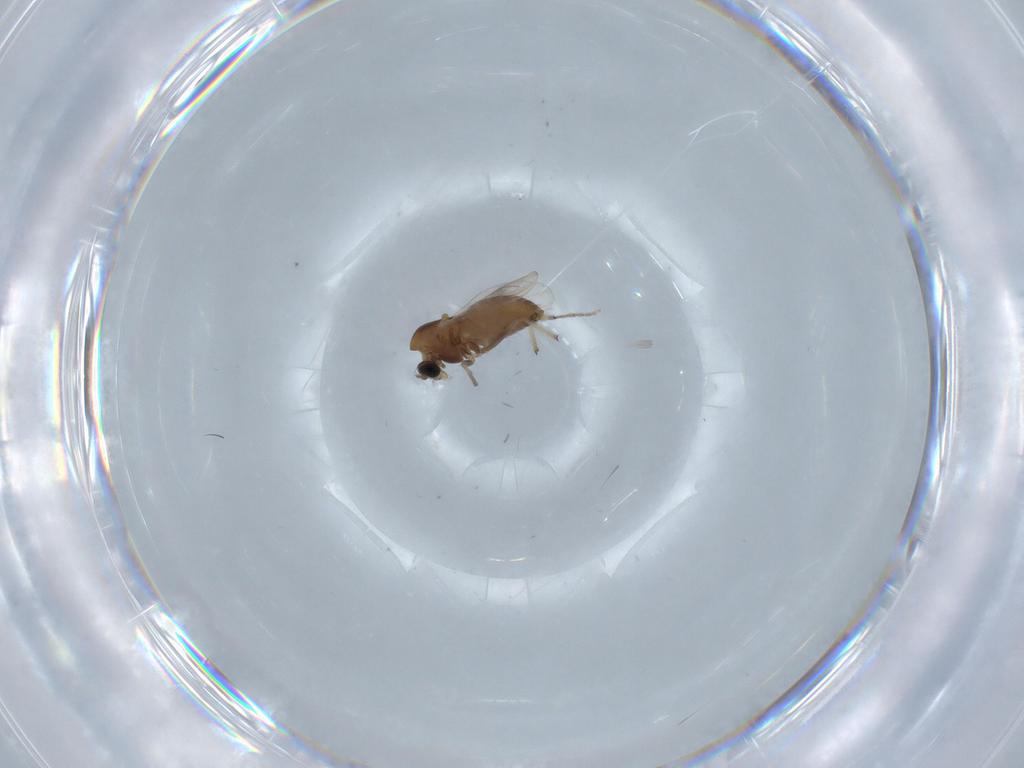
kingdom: Animalia
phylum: Arthropoda
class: Insecta
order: Diptera
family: Chironomidae
